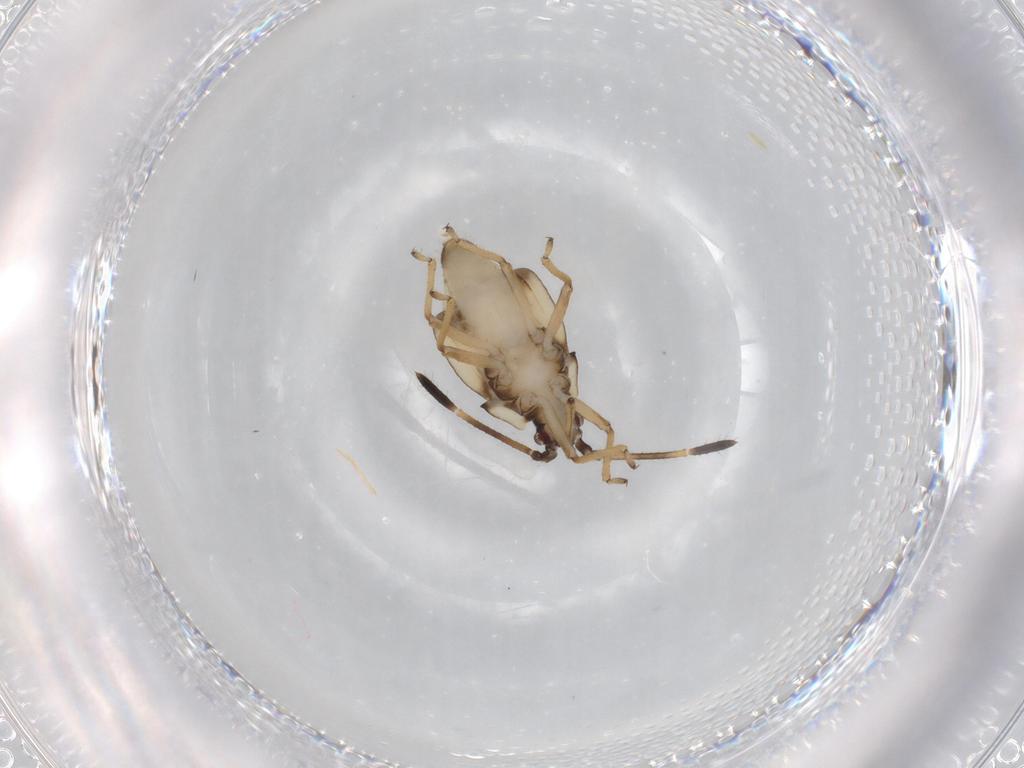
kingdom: Animalia
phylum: Arthropoda
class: Insecta
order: Hemiptera
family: Tingidae
